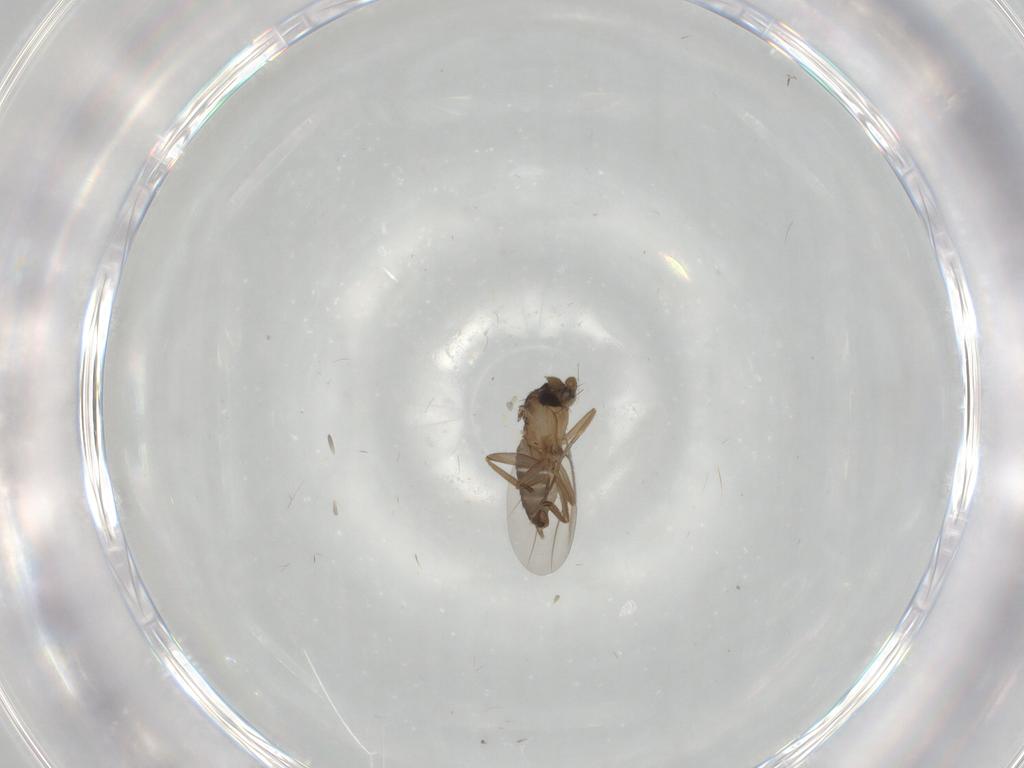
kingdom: Animalia
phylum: Arthropoda
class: Insecta
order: Diptera
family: Phoridae
